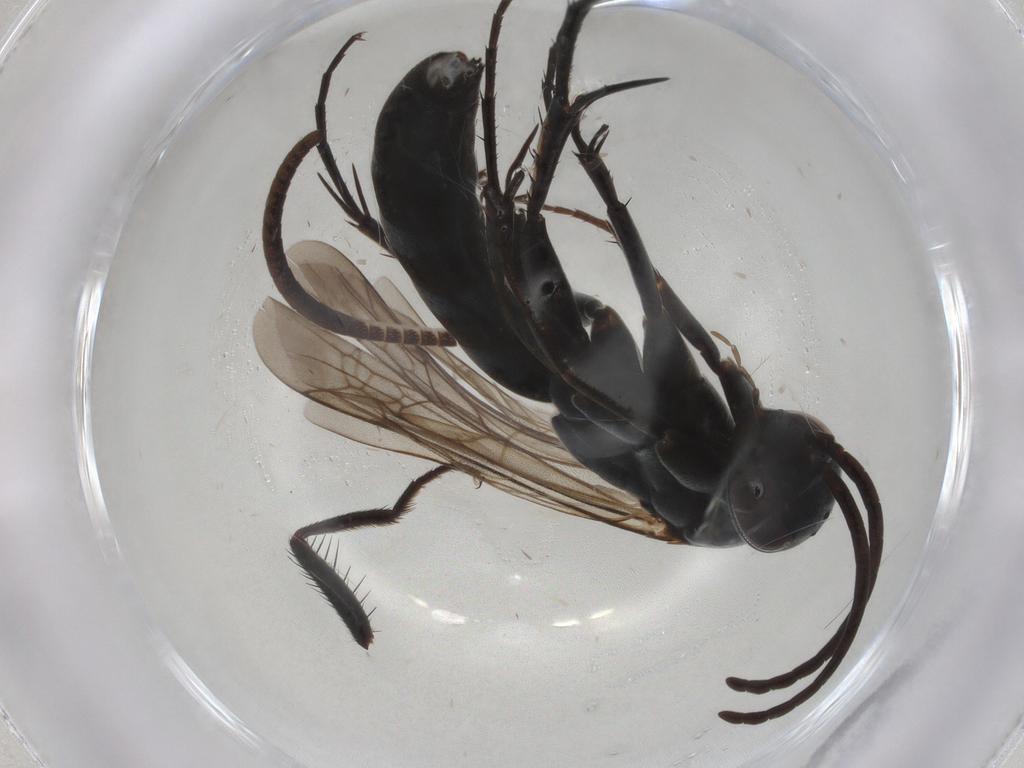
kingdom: Animalia
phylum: Arthropoda
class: Insecta
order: Hymenoptera
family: Pompilidae
